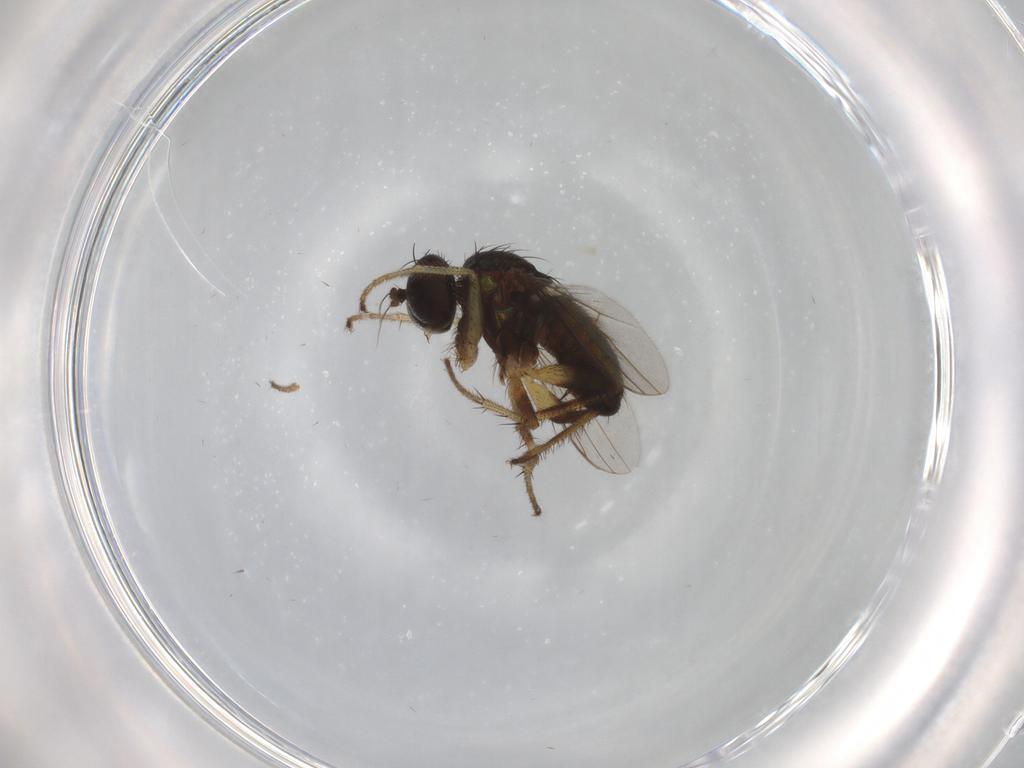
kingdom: Animalia
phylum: Arthropoda
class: Insecta
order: Diptera
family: Dolichopodidae
